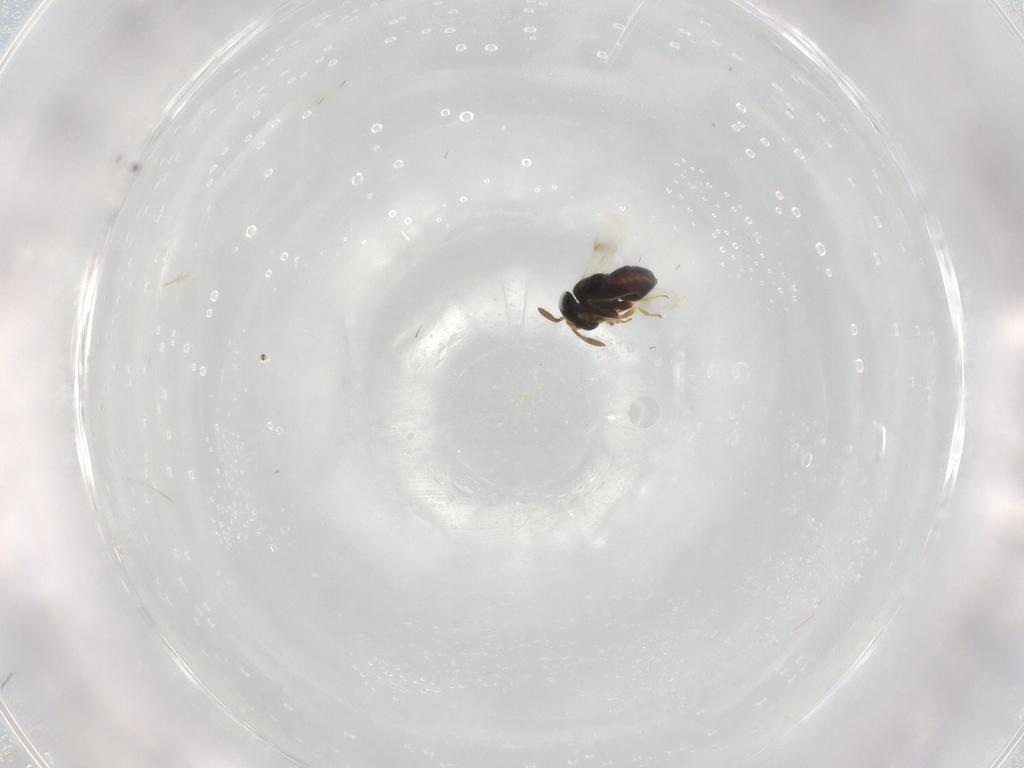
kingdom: Animalia
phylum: Arthropoda
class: Insecta
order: Hymenoptera
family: Scelionidae
